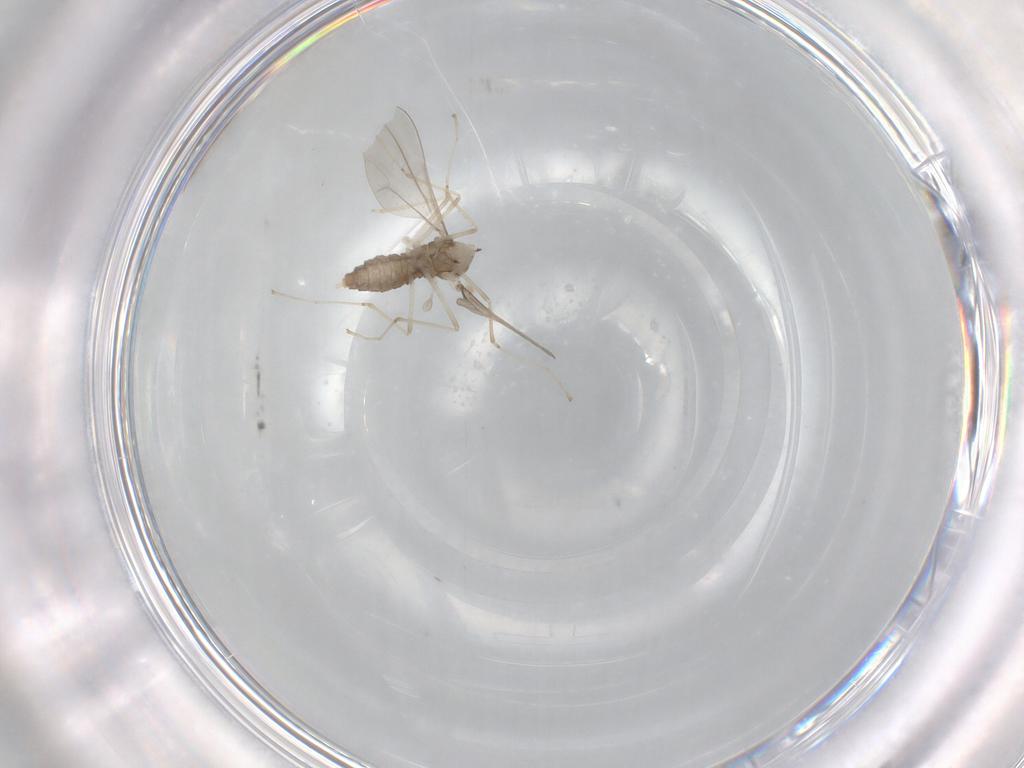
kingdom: Animalia
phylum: Arthropoda
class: Insecta
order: Diptera
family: Cecidomyiidae
